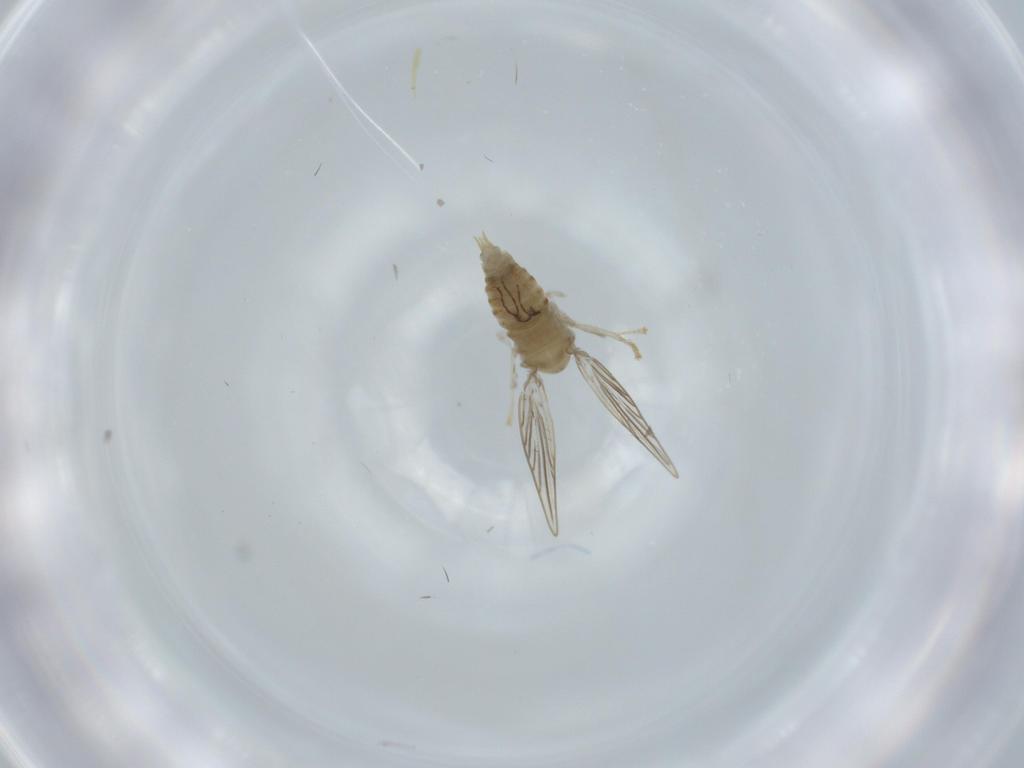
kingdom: Animalia
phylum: Arthropoda
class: Insecta
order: Diptera
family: Psychodidae
